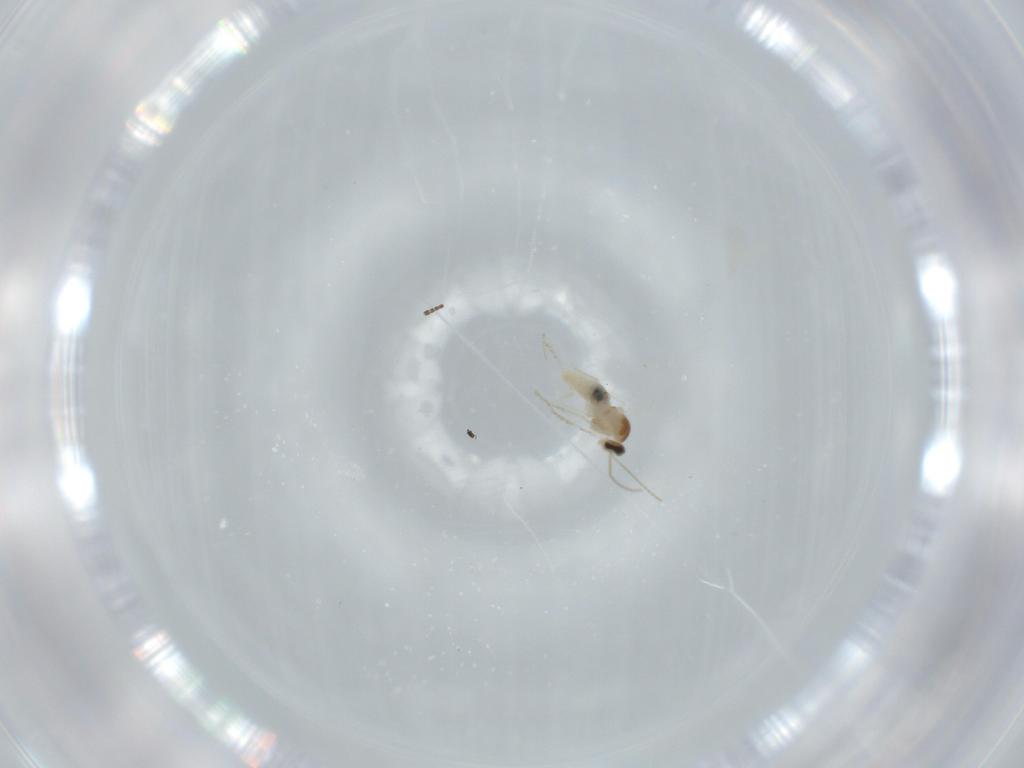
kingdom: Animalia
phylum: Arthropoda
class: Insecta
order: Diptera
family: Cecidomyiidae
